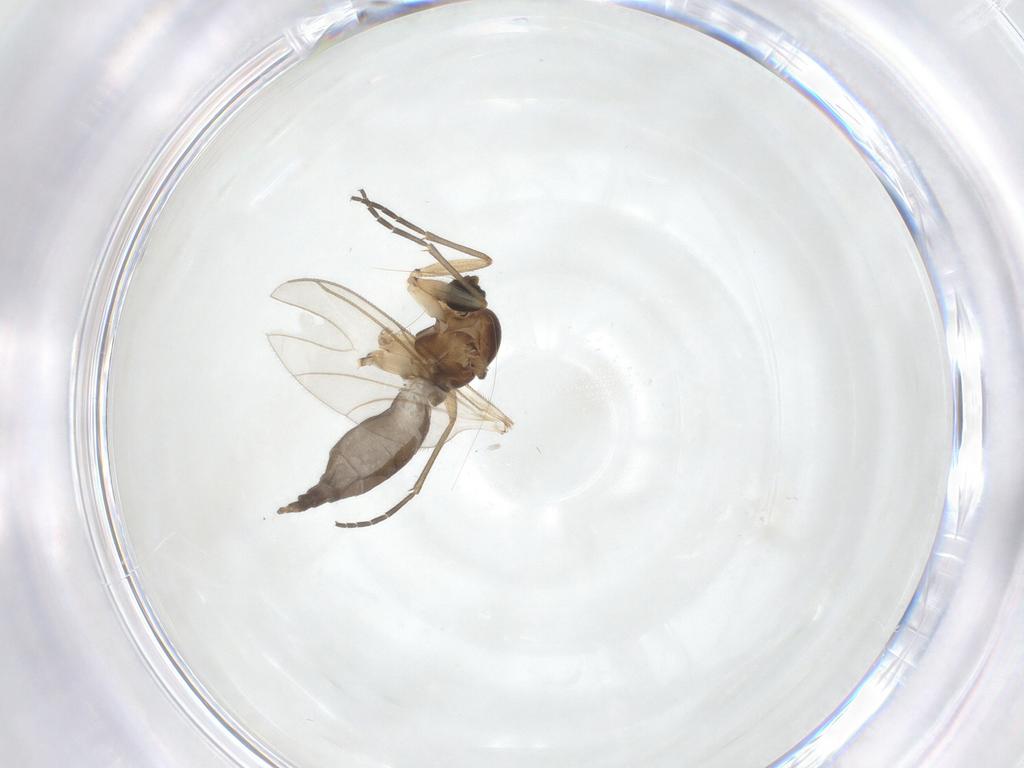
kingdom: Animalia
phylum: Arthropoda
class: Insecta
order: Diptera
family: Sciaridae
